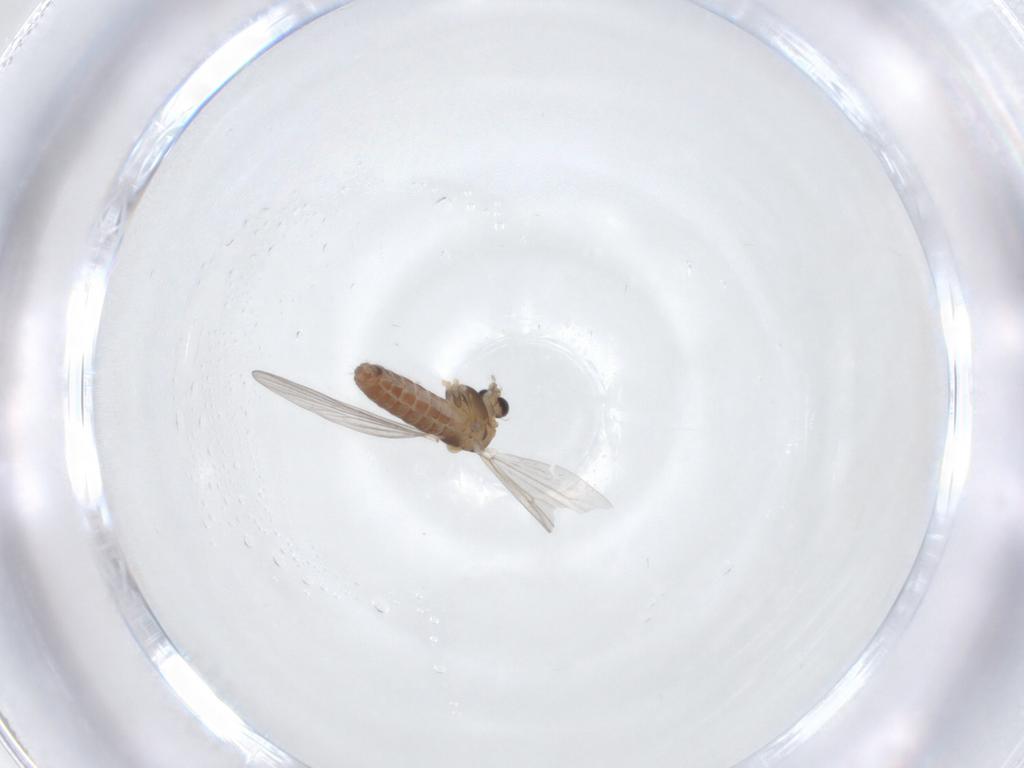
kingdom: Animalia
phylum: Arthropoda
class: Insecta
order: Diptera
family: Chironomidae
